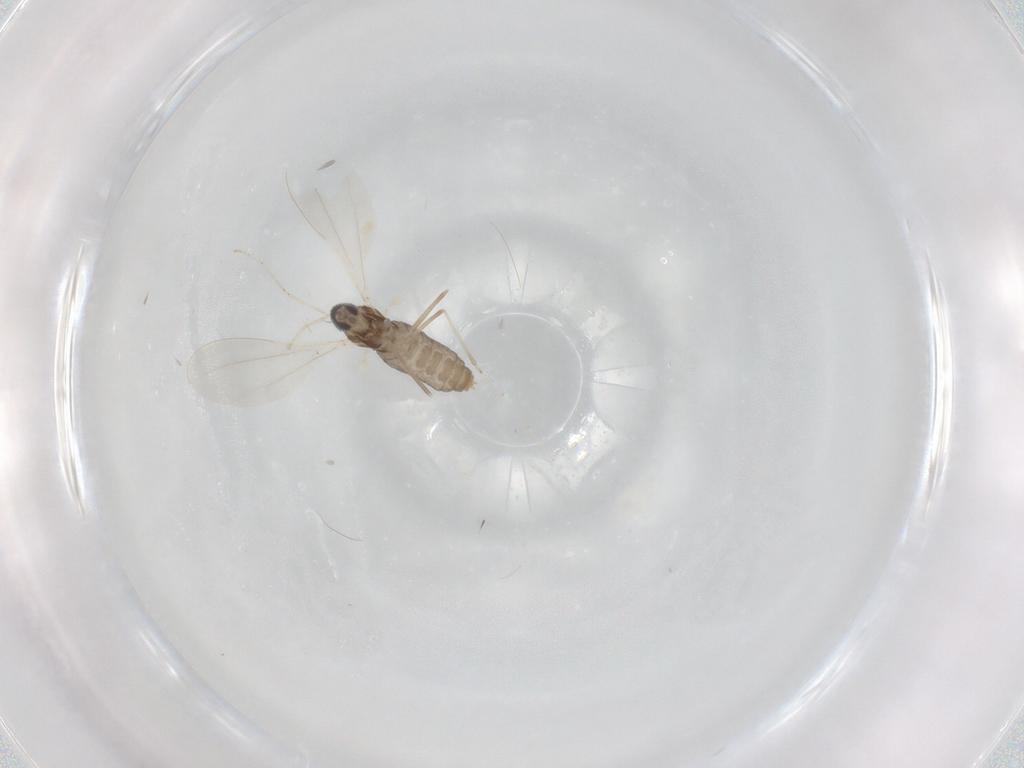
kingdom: Animalia
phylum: Arthropoda
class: Insecta
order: Diptera
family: Cecidomyiidae
